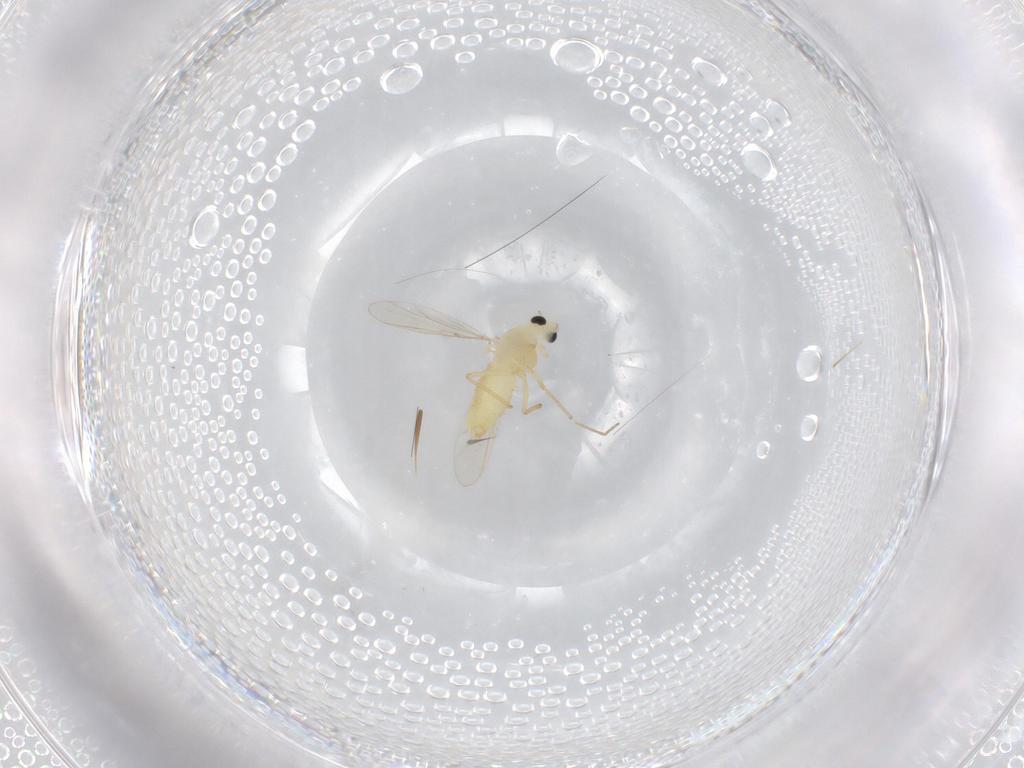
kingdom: Animalia
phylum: Arthropoda
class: Insecta
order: Diptera
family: Chironomidae
